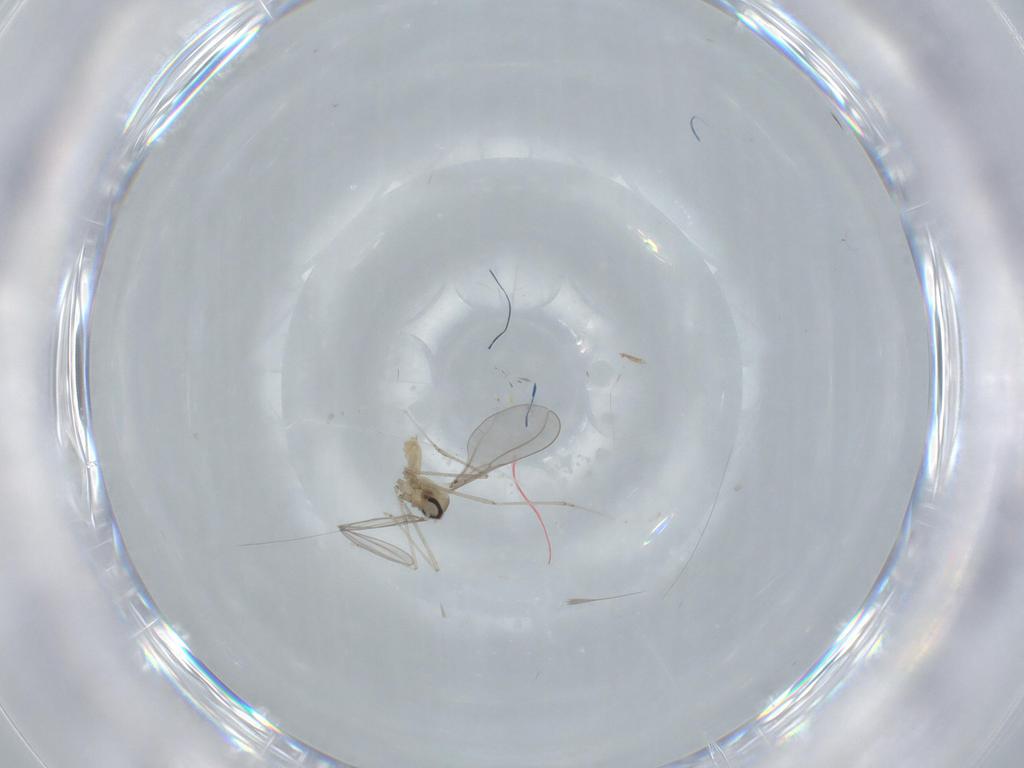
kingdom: Animalia
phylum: Arthropoda
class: Insecta
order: Diptera
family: Cecidomyiidae
